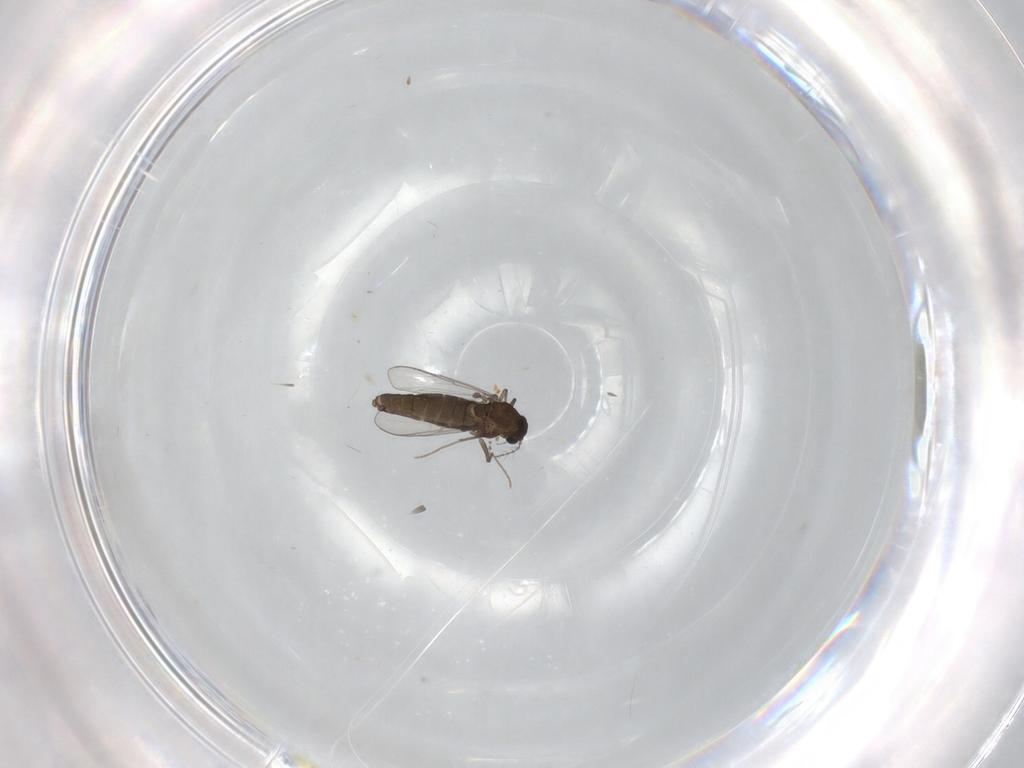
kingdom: Animalia
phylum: Arthropoda
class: Insecta
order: Diptera
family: Chironomidae
